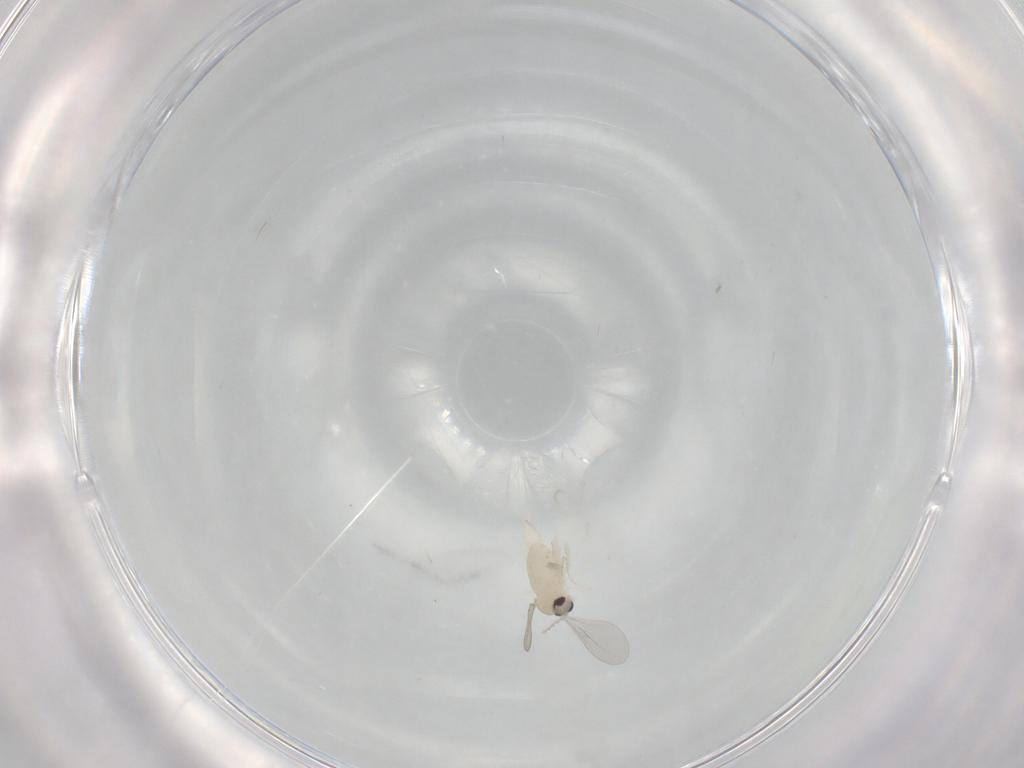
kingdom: Animalia
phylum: Arthropoda
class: Insecta
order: Diptera
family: Cecidomyiidae
